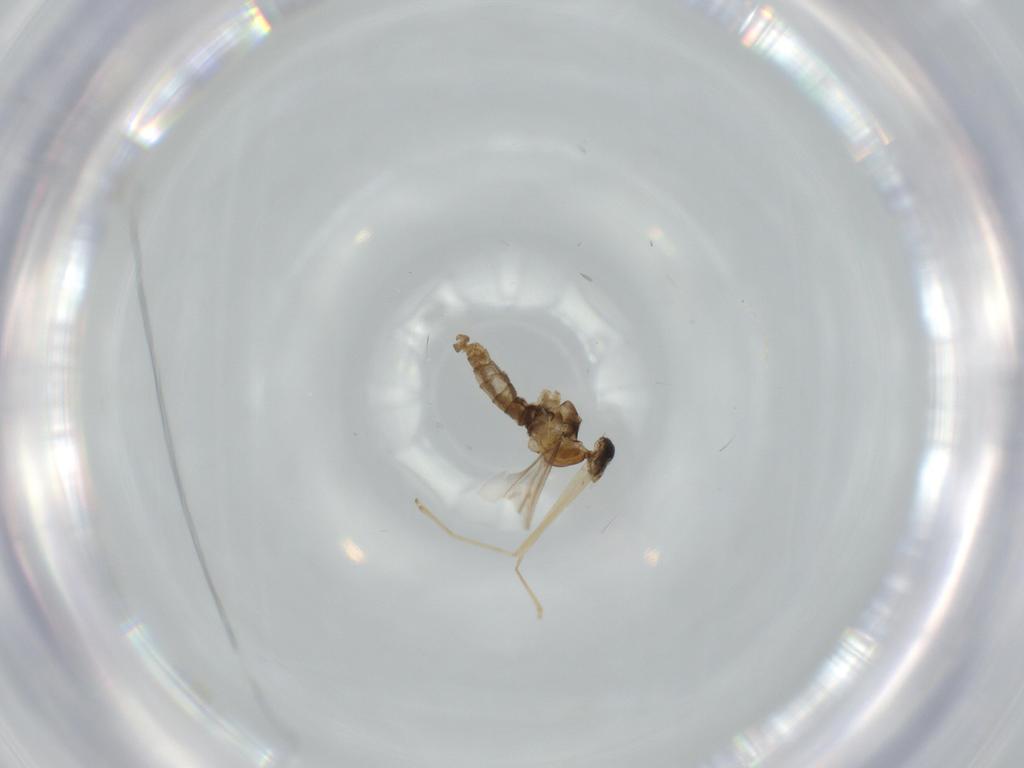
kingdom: Animalia
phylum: Arthropoda
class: Insecta
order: Diptera
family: Cecidomyiidae
